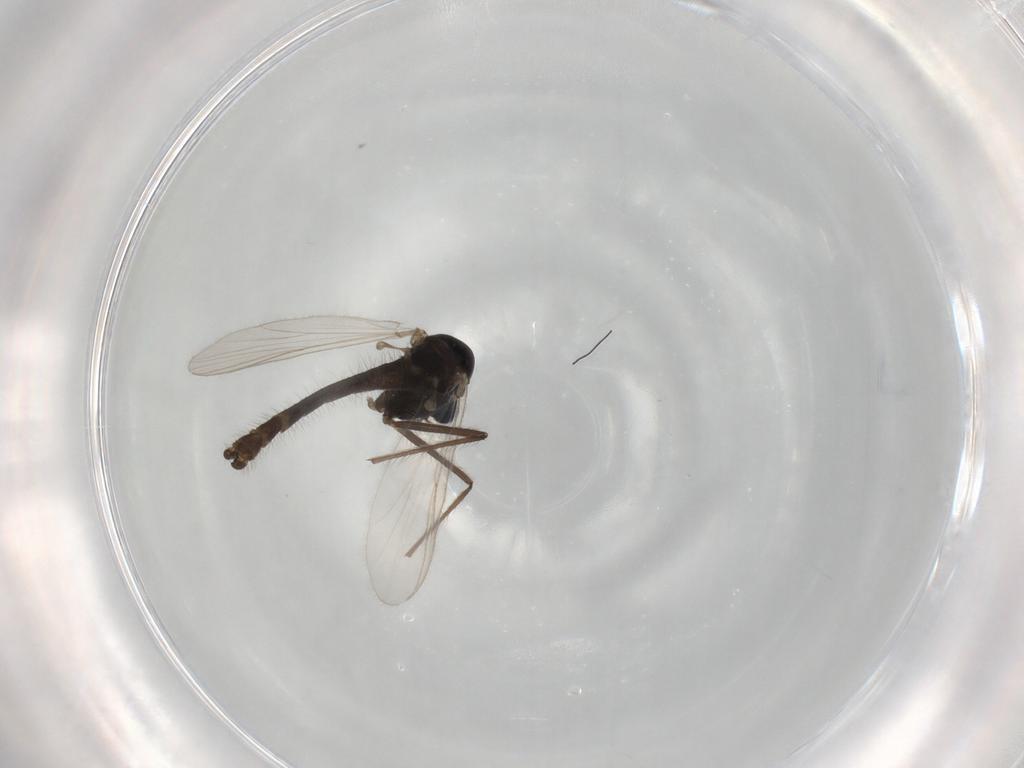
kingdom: Animalia
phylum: Arthropoda
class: Insecta
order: Diptera
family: Chironomidae
